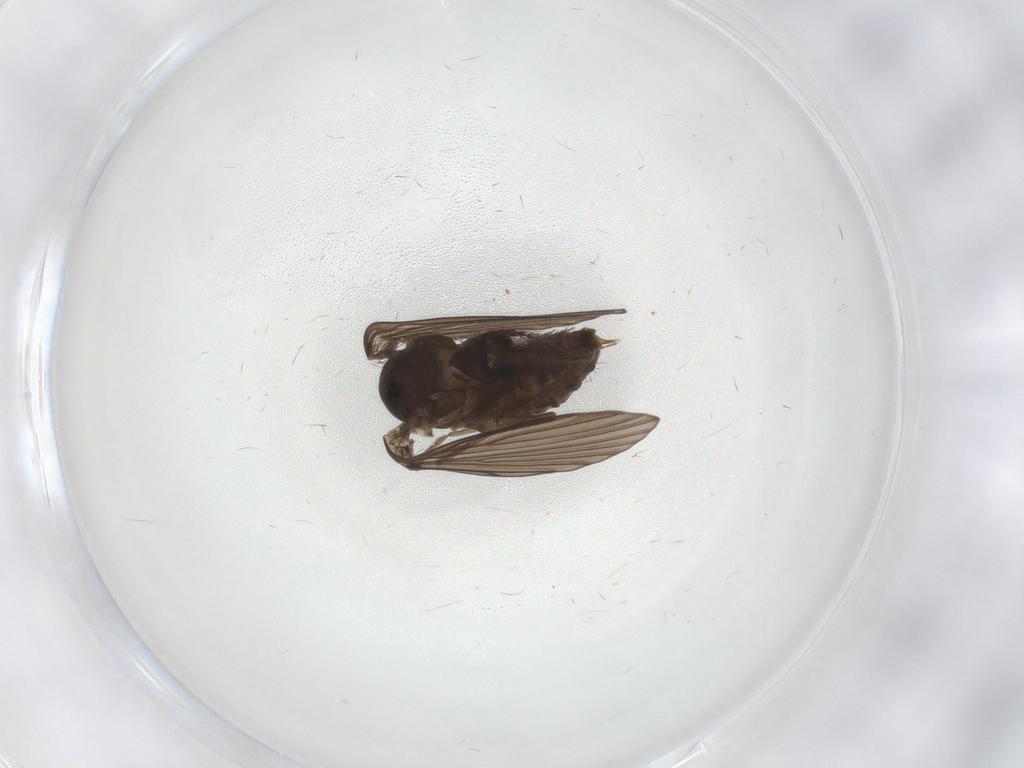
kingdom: Animalia
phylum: Arthropoda
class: Insecta
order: Diptera
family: Psychodidae
